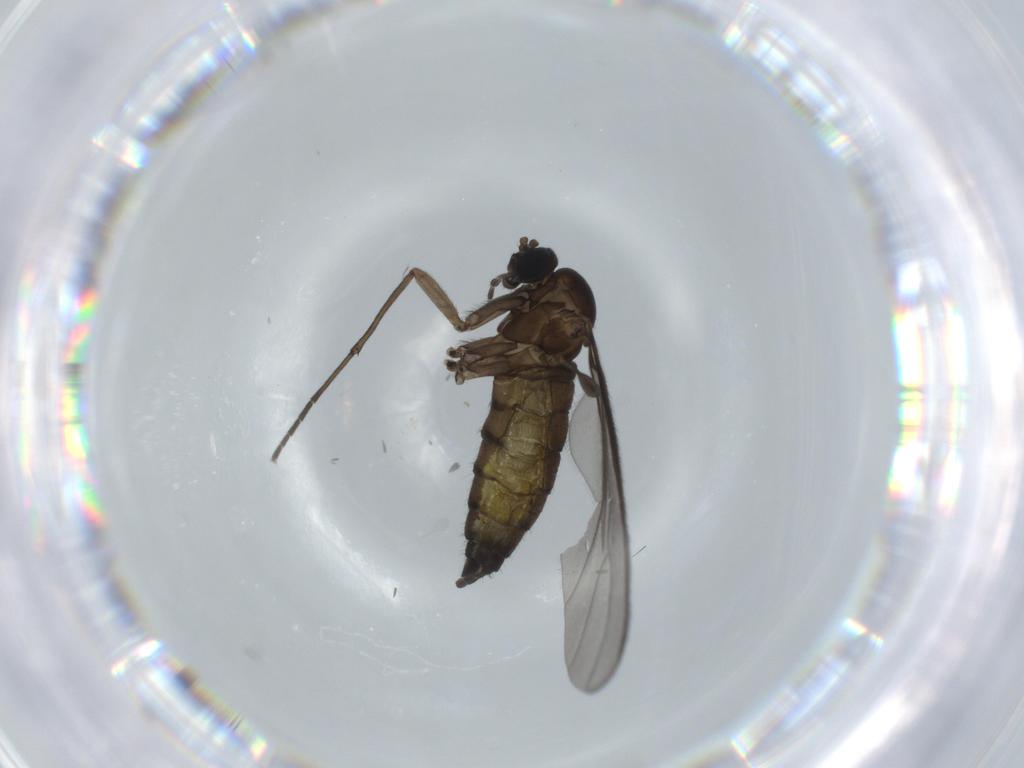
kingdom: Animalia
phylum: Arthropoda
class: Insecta
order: Diptera
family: Sciaridae
